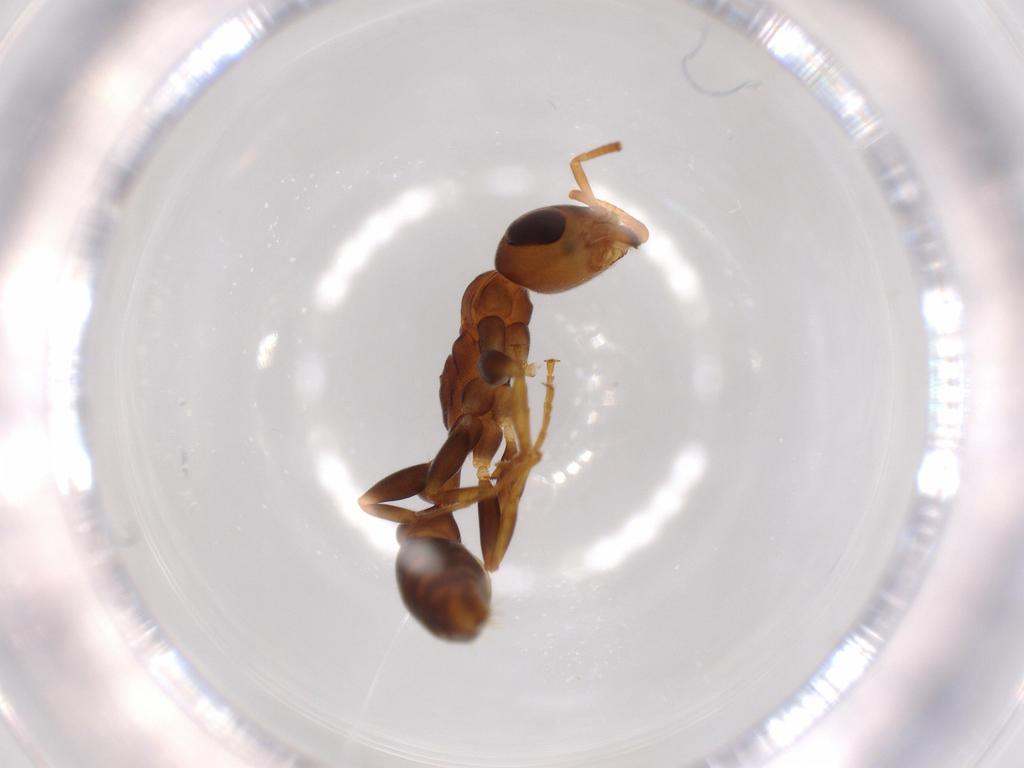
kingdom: Animalia
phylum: Arthropoda
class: Insecta
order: Hymenoptera
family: Formicidae
